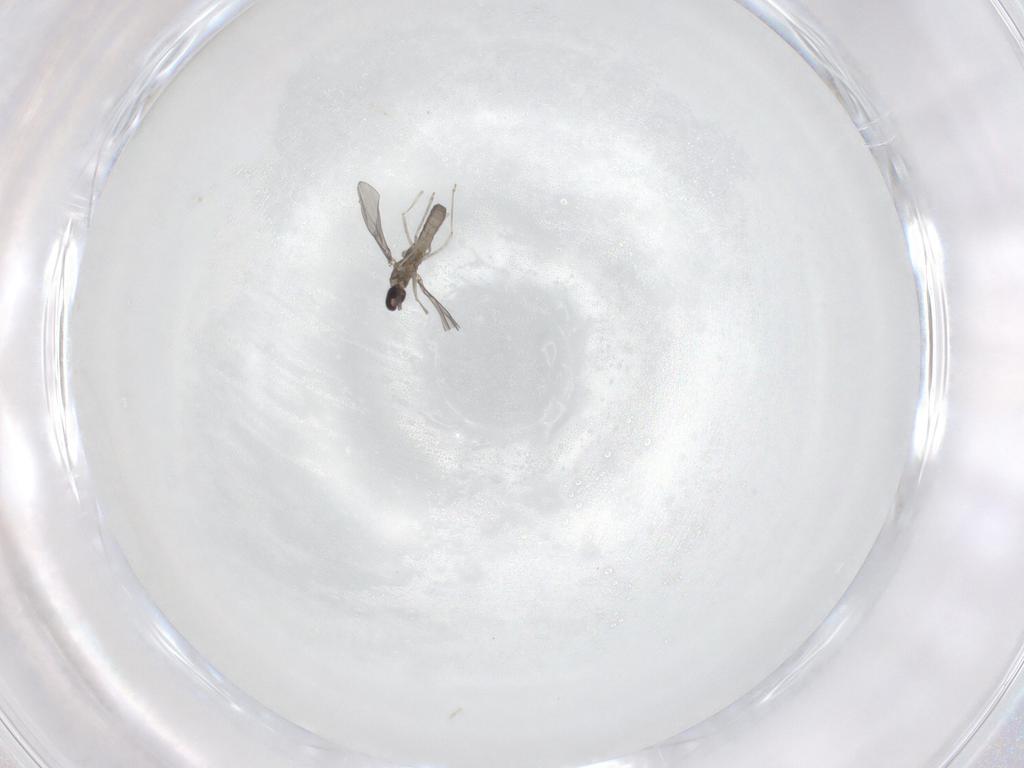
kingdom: Animalia
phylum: Arthropoda
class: Insecta
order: Diptera
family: Cecidomyiidae
